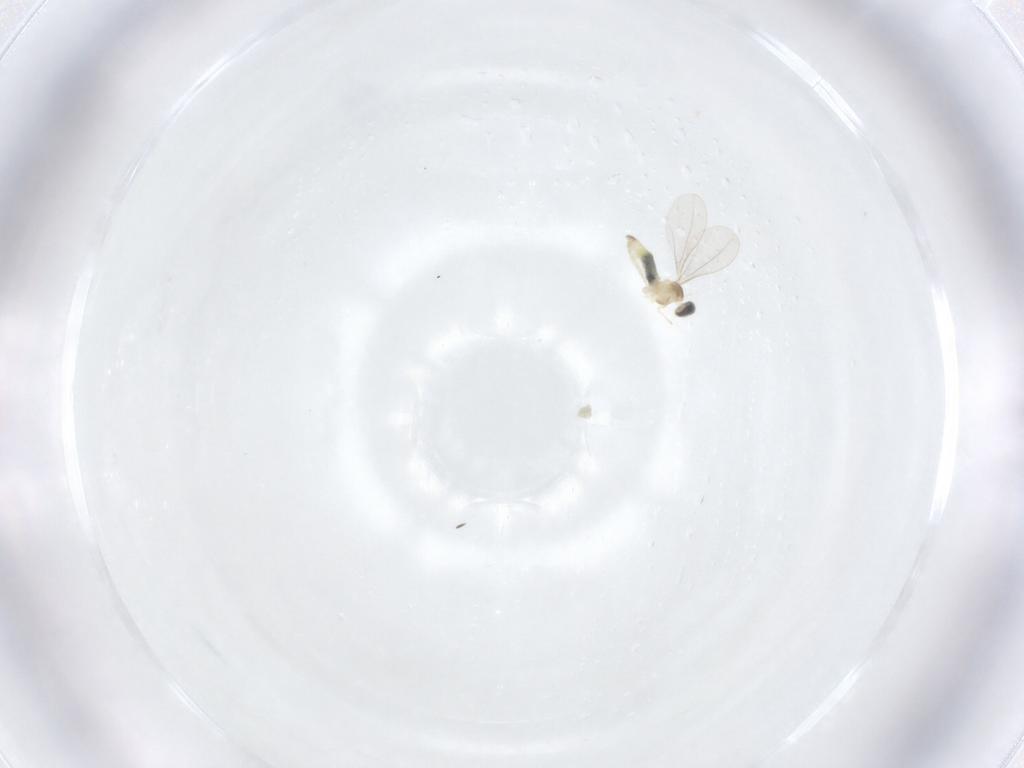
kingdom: Animalia
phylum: Arthropoda
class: Insecta
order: Diptera
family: Cecidomyiidae
